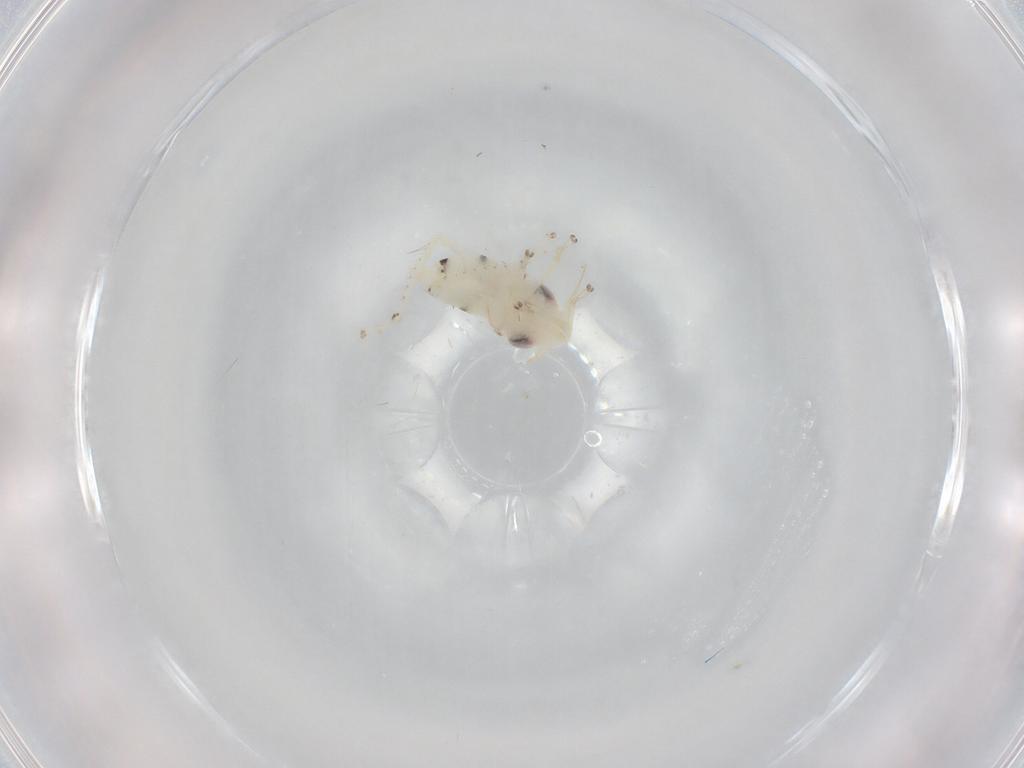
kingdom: Animalia
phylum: Arthropoda
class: Insecta
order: Hemiptera
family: Cicadellidae
